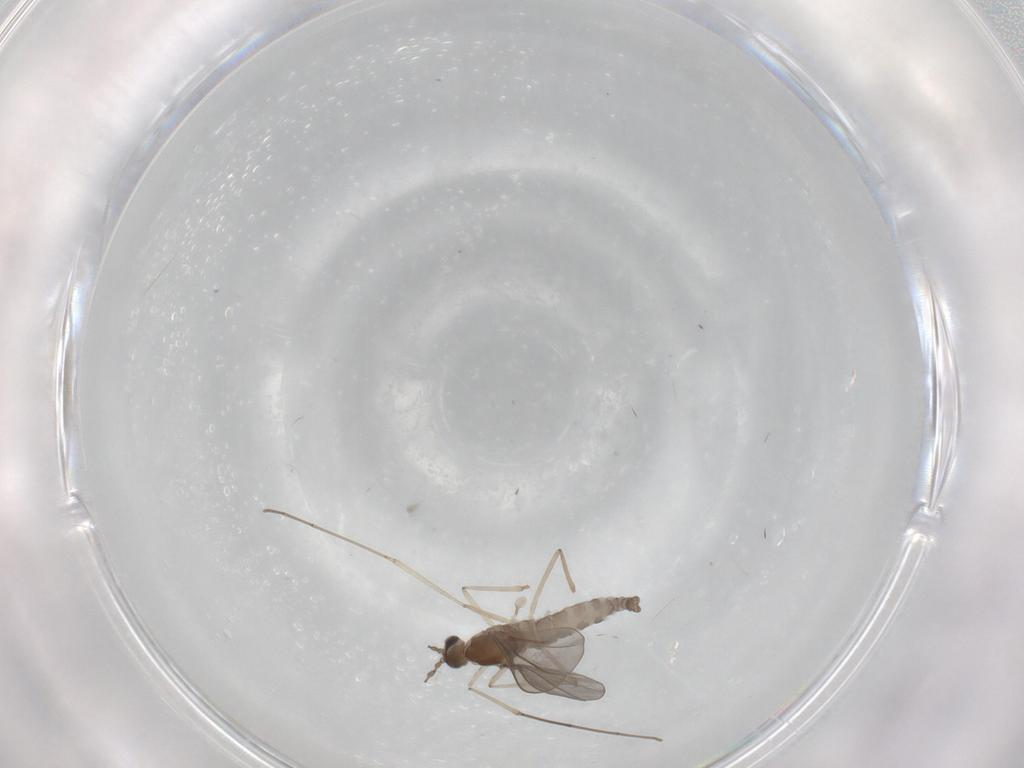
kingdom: Animalia
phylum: Arthropoda
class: Insecta
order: Diptera
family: Cecidomyiidae
